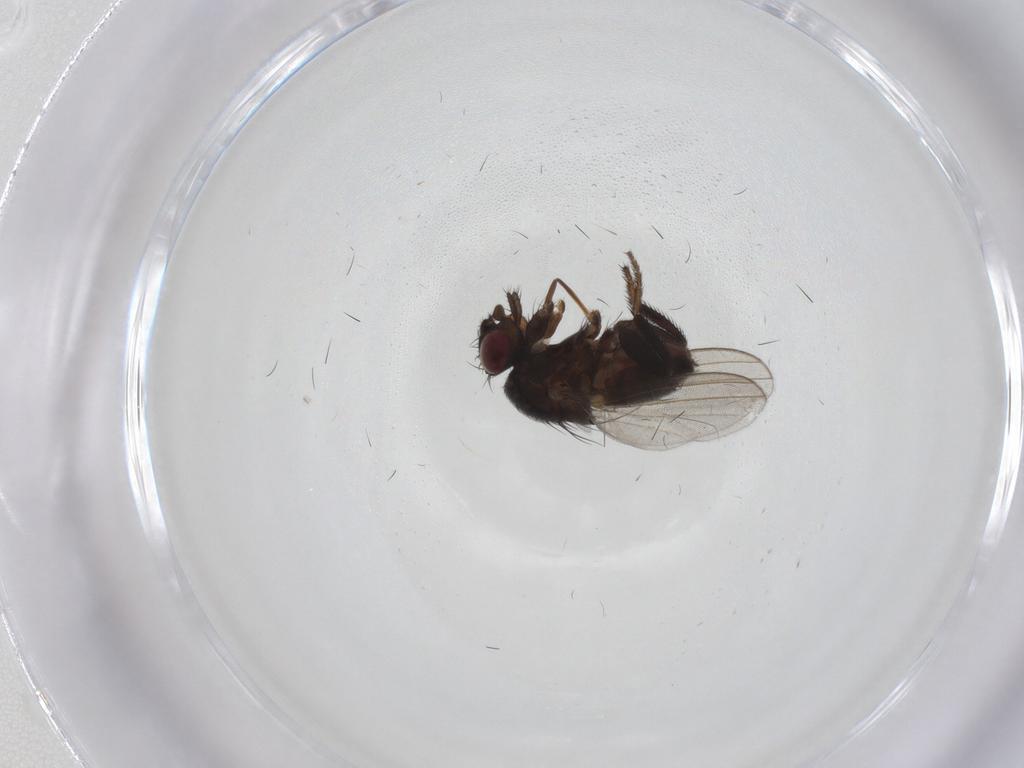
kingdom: Animalia
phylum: Arthropoda
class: Insecta
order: Diptera
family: Milichiidae
